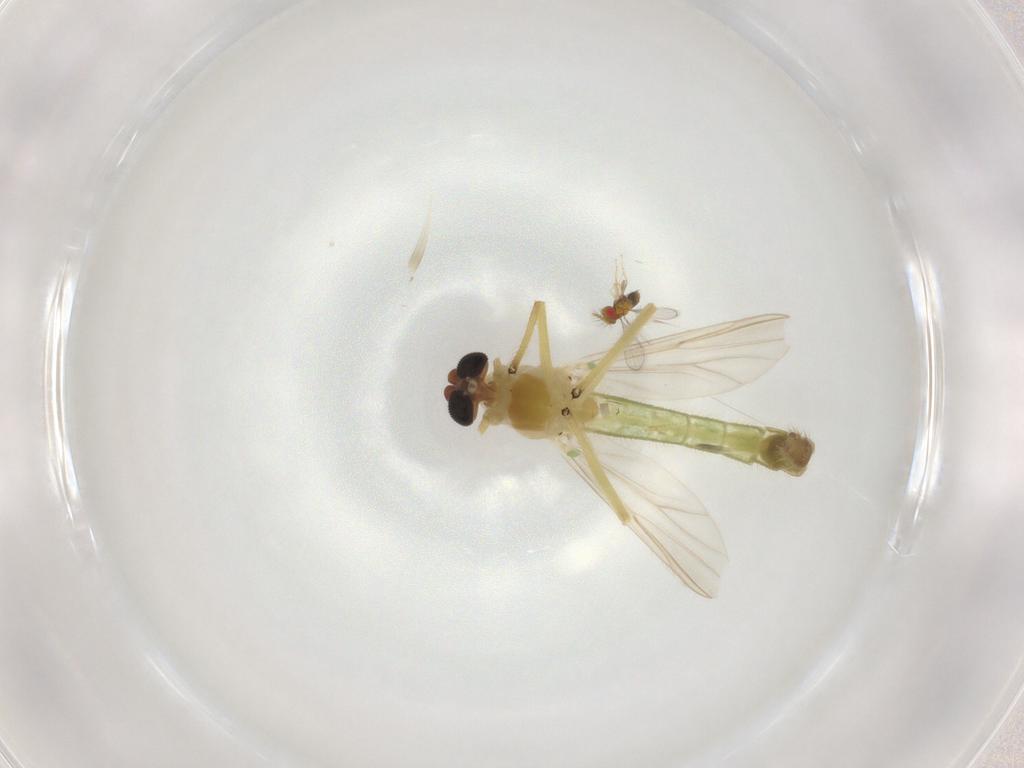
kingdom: Animalia
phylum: Arthropoda
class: Insecta
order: Diptera
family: Chironomidae
